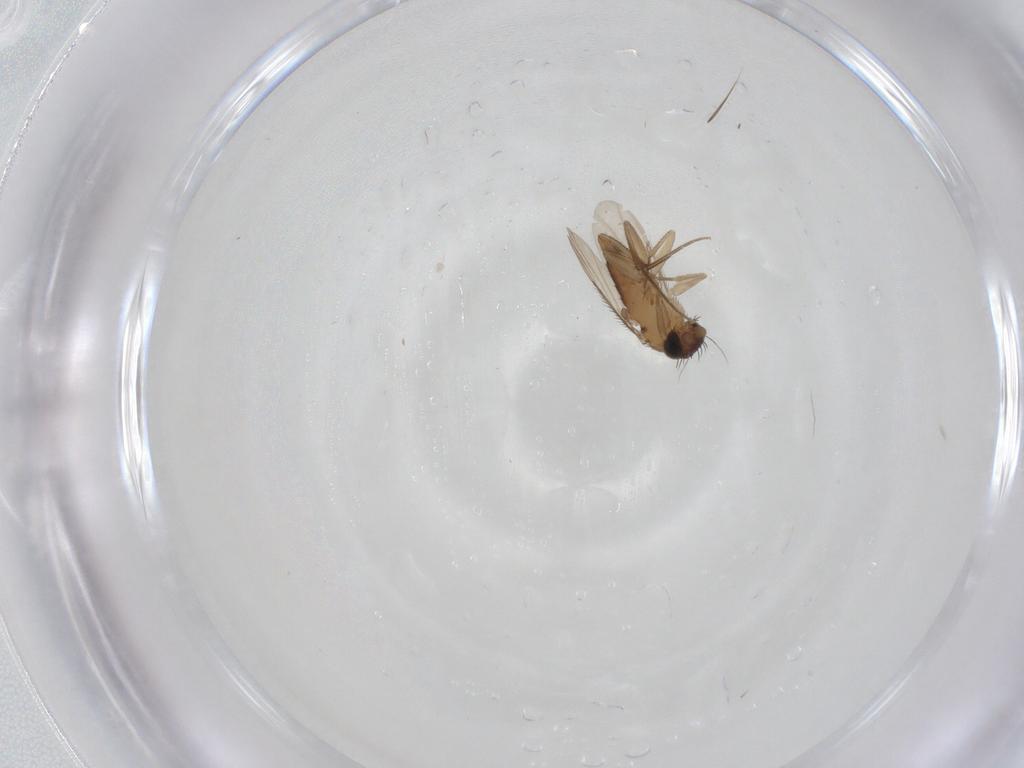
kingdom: Animalia
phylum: Arthropoda
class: Insecta
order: Diptera
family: Phoridae
